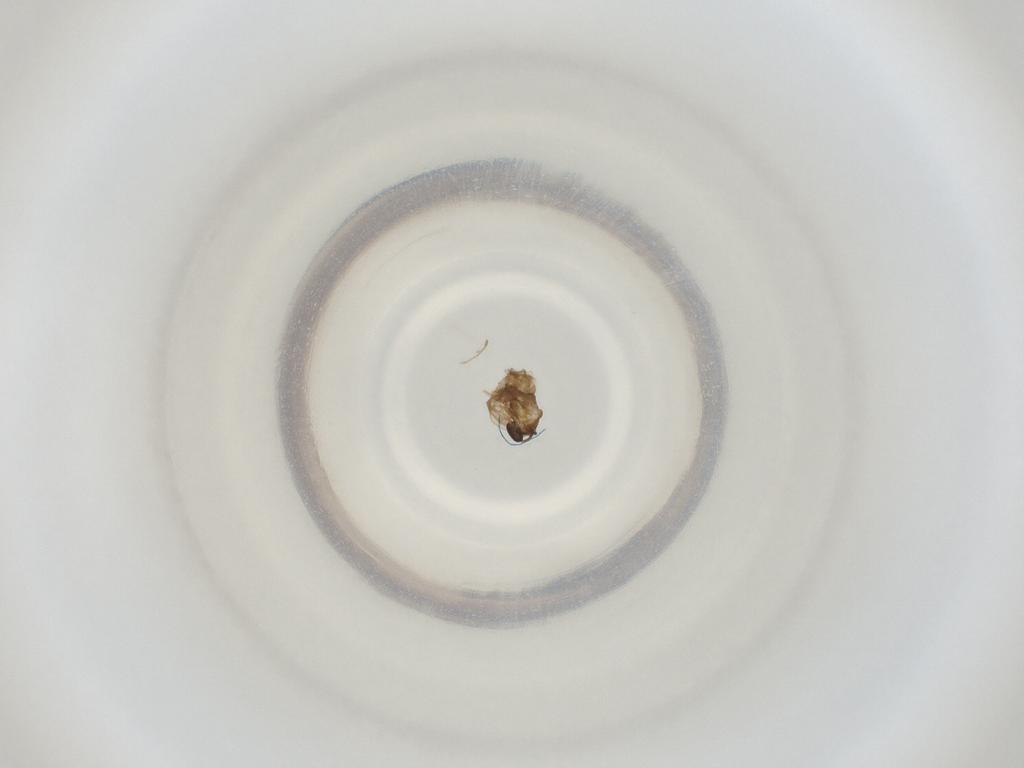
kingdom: Animalia
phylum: Arthropoda
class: Insecta
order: Diptera
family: Cecidomyiidae
